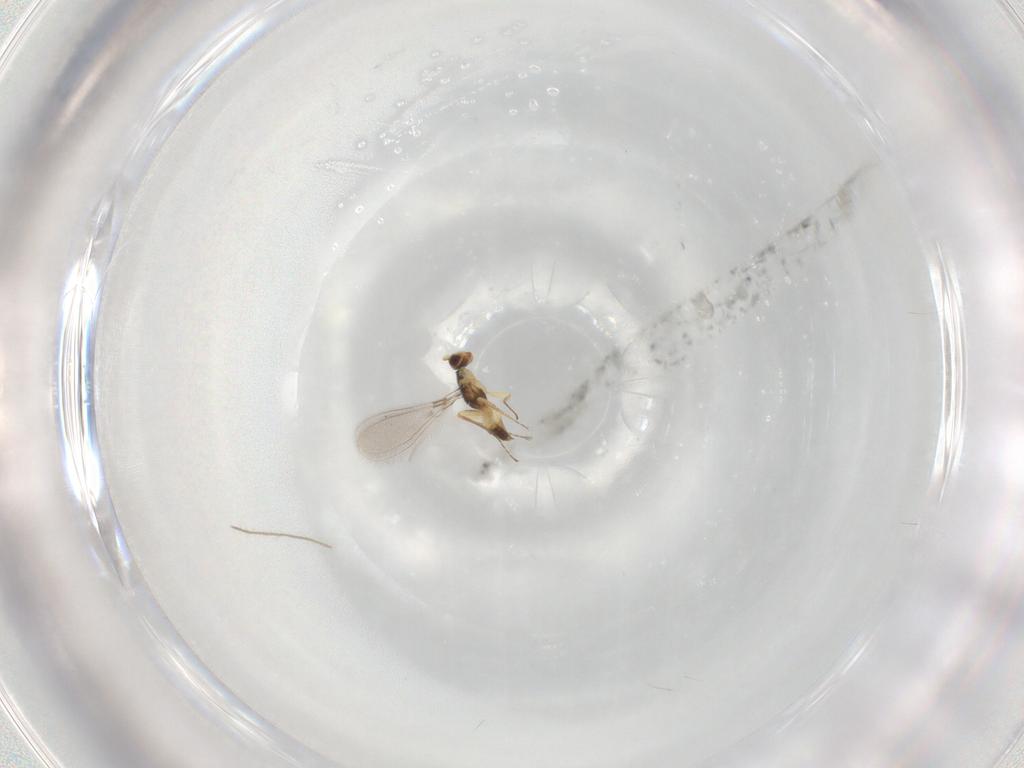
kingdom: Animalia
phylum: Arthropoda
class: Insecta
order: Hymenoptera
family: Mymaridae
